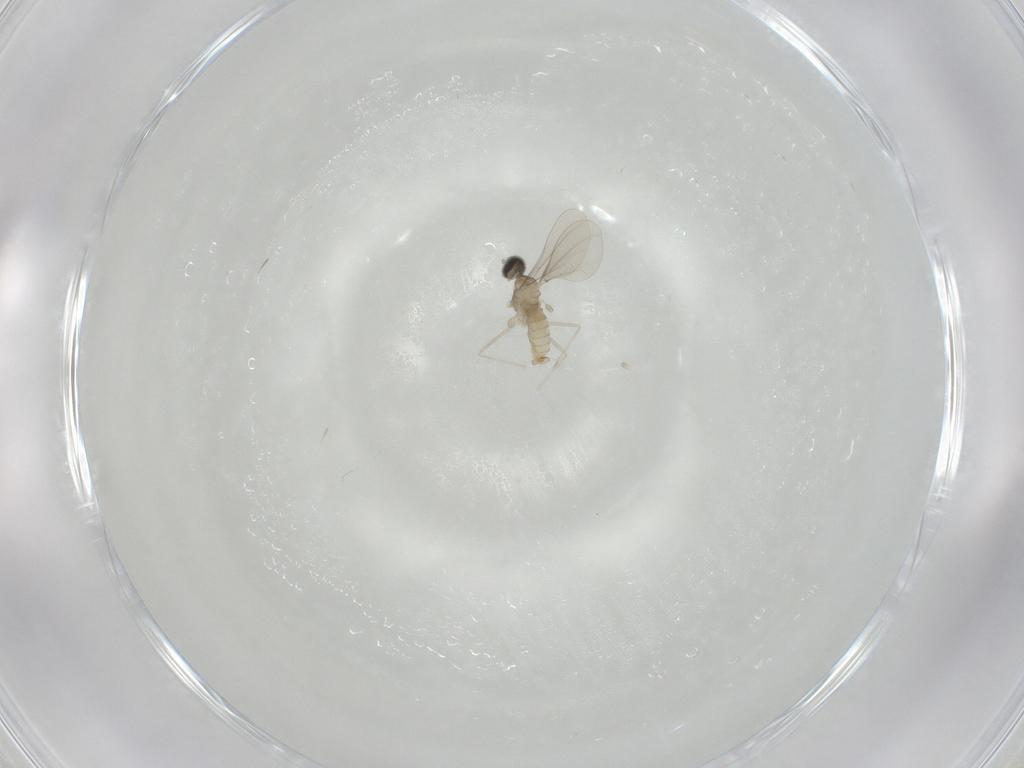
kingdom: Animalia
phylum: Arthropoda
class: Insecta
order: Diptera
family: Cecidomyiidae
